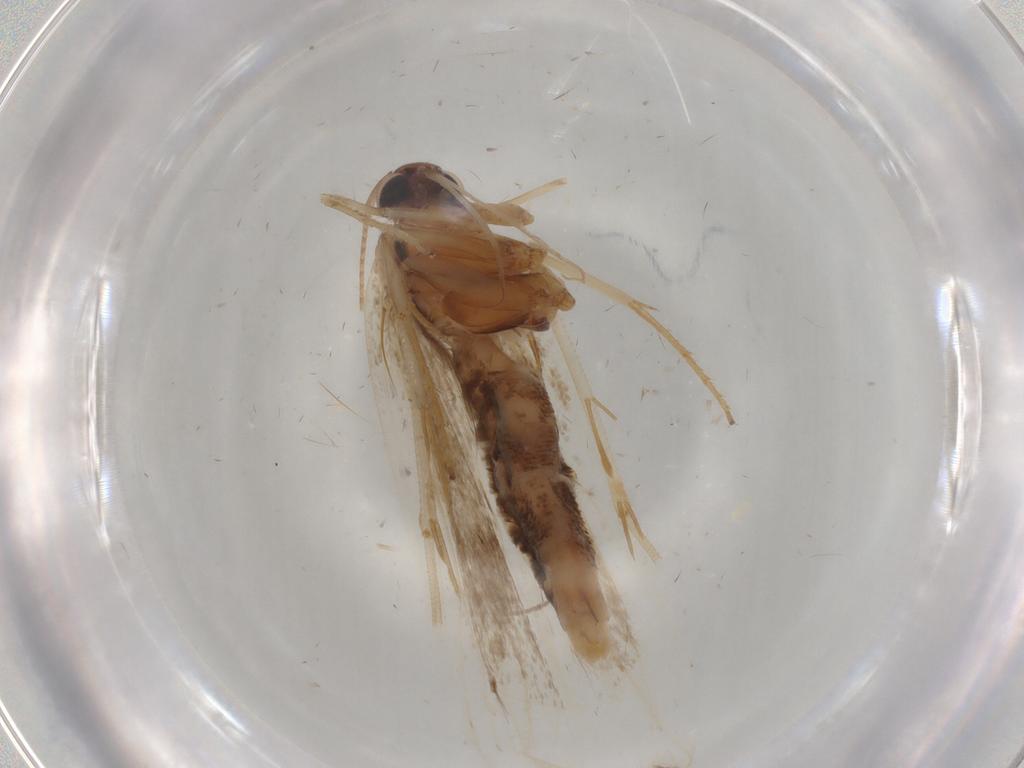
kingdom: Animalia
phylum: Arthropoda
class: Insecta
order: Lepidoptera
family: Gelechiidae
